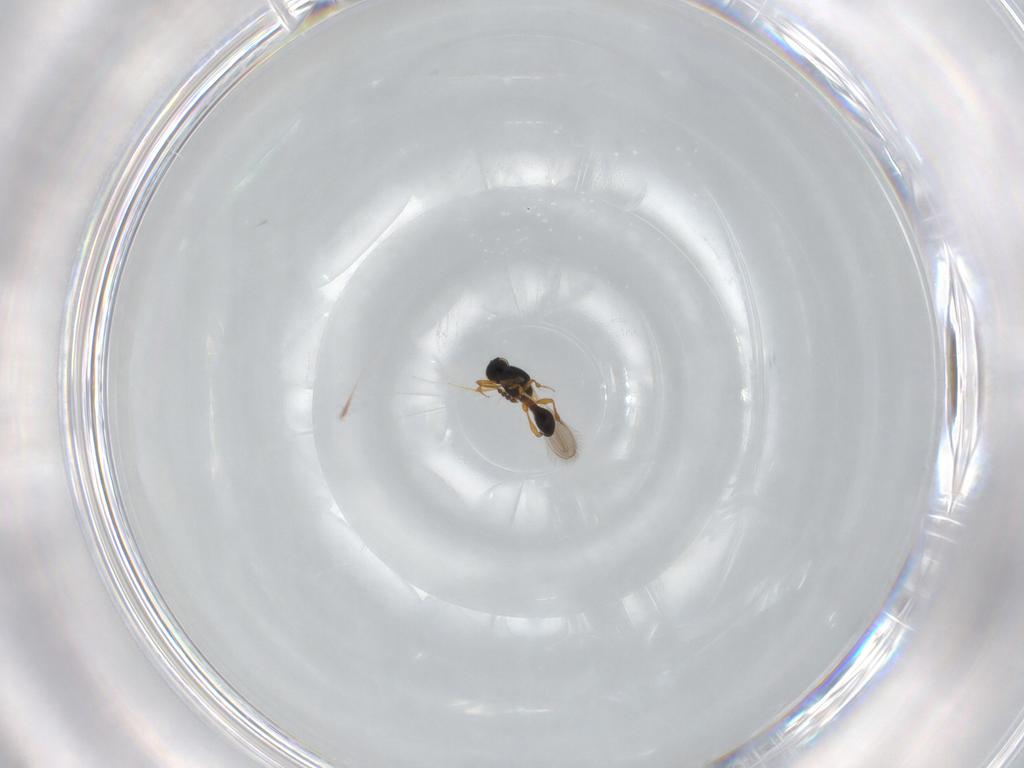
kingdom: Animalia
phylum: Arthropoda
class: Insecta
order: Hymenoptera
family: Platygastridae
